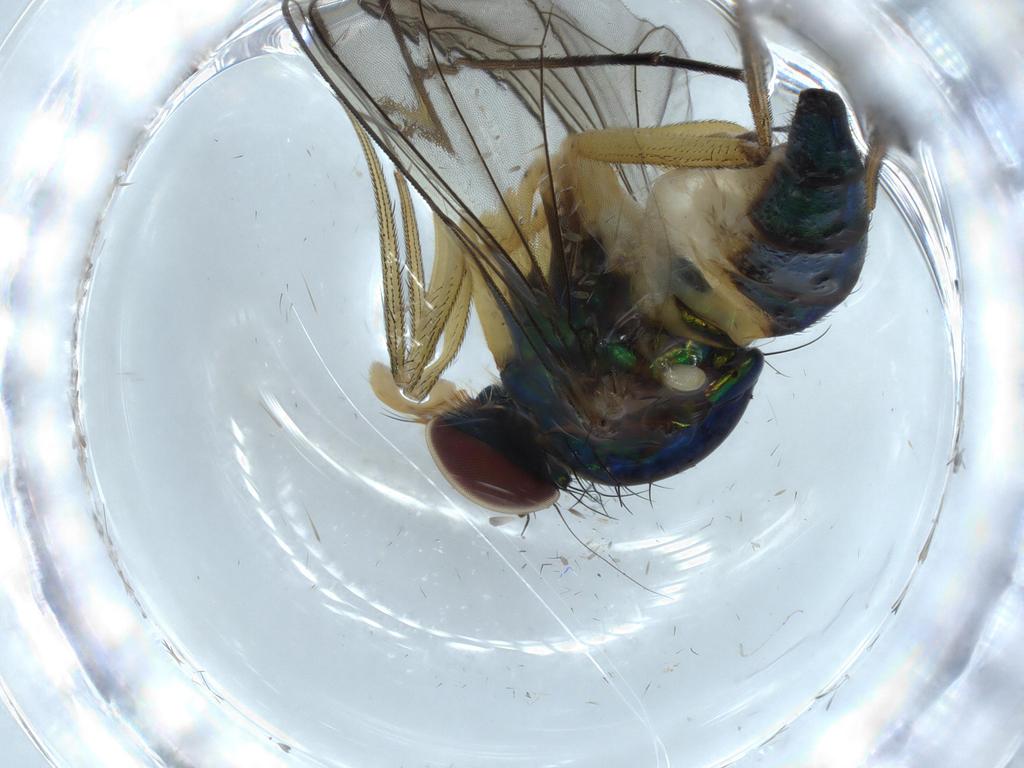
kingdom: Animalia
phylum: Arthropoda
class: Insecta
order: Diptera
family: Dolichopodidae
